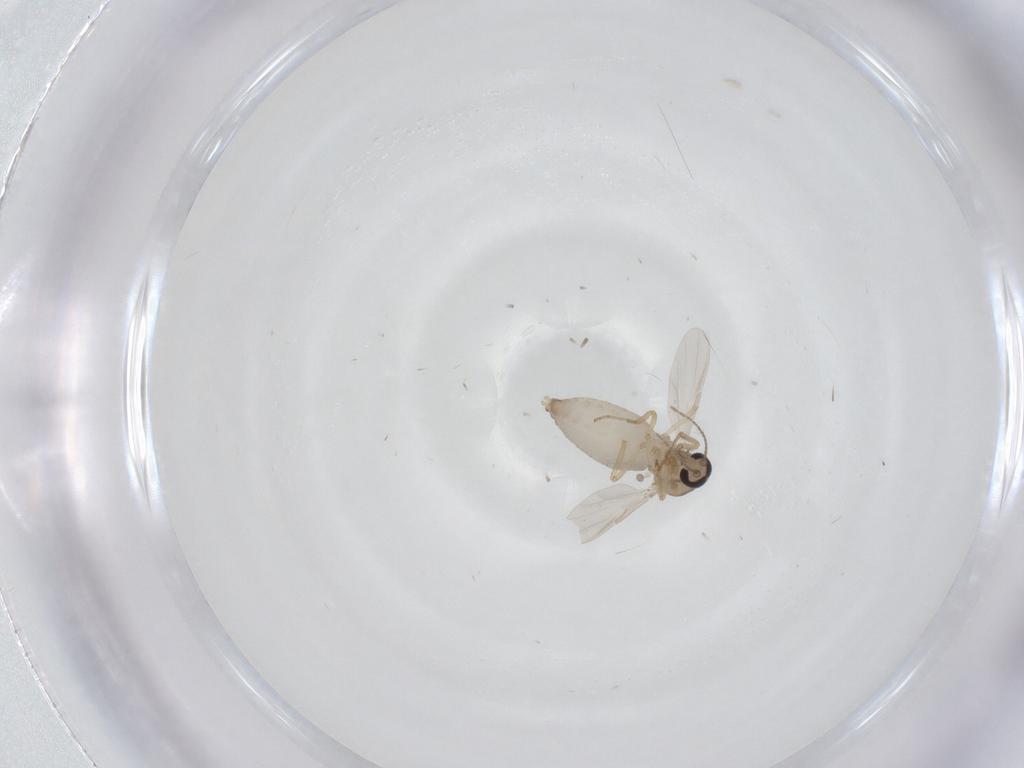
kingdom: Animalia
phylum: Arthropoda
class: Insecta
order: Diptera
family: Ceratopogonidae
